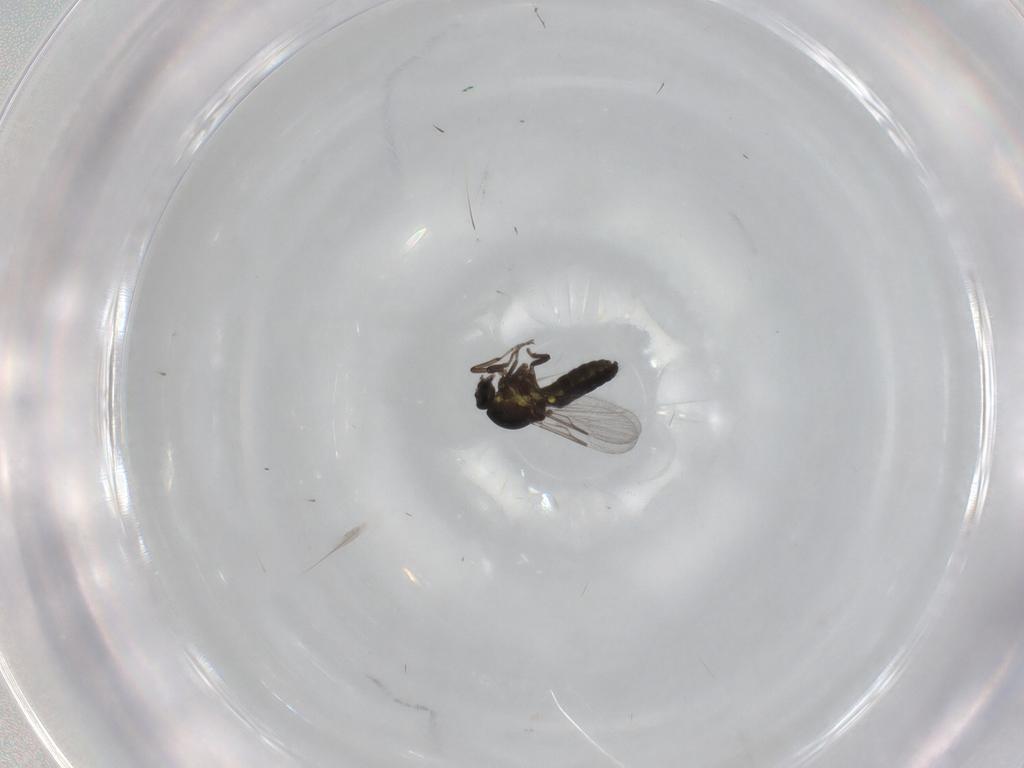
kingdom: Animalia
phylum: Arthropoda
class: Insecta
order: Diptera
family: Ceratopogonidae
